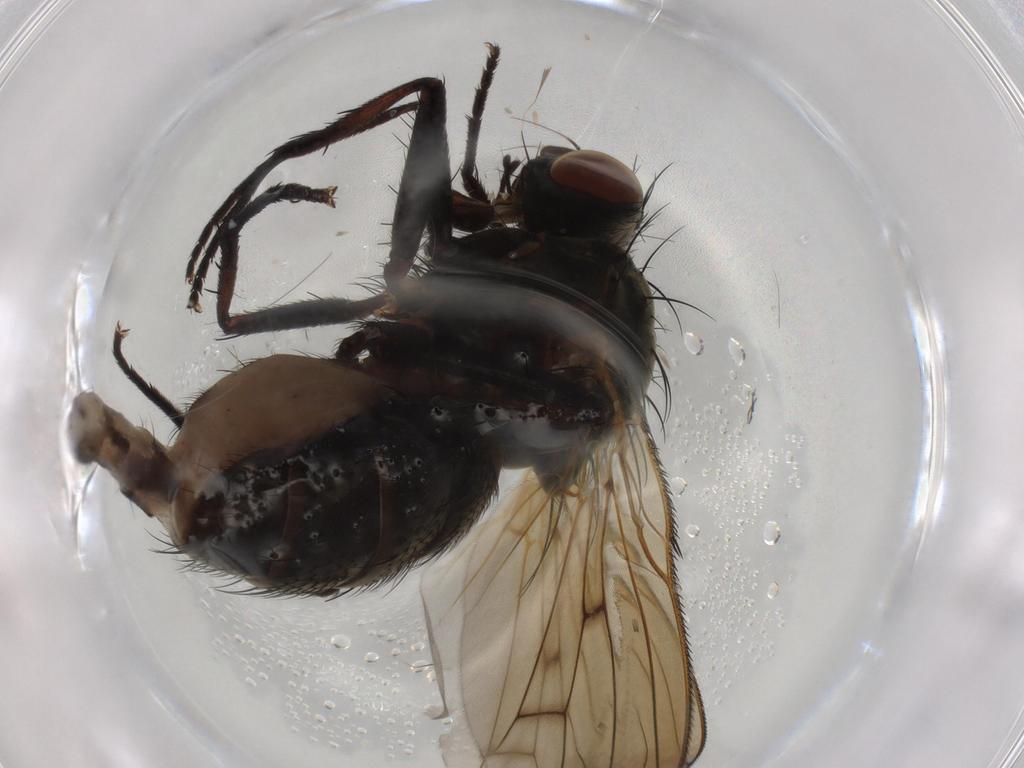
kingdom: Animalia
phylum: Arthropoda
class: Insecta
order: Diptera
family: Anthomyiidae
